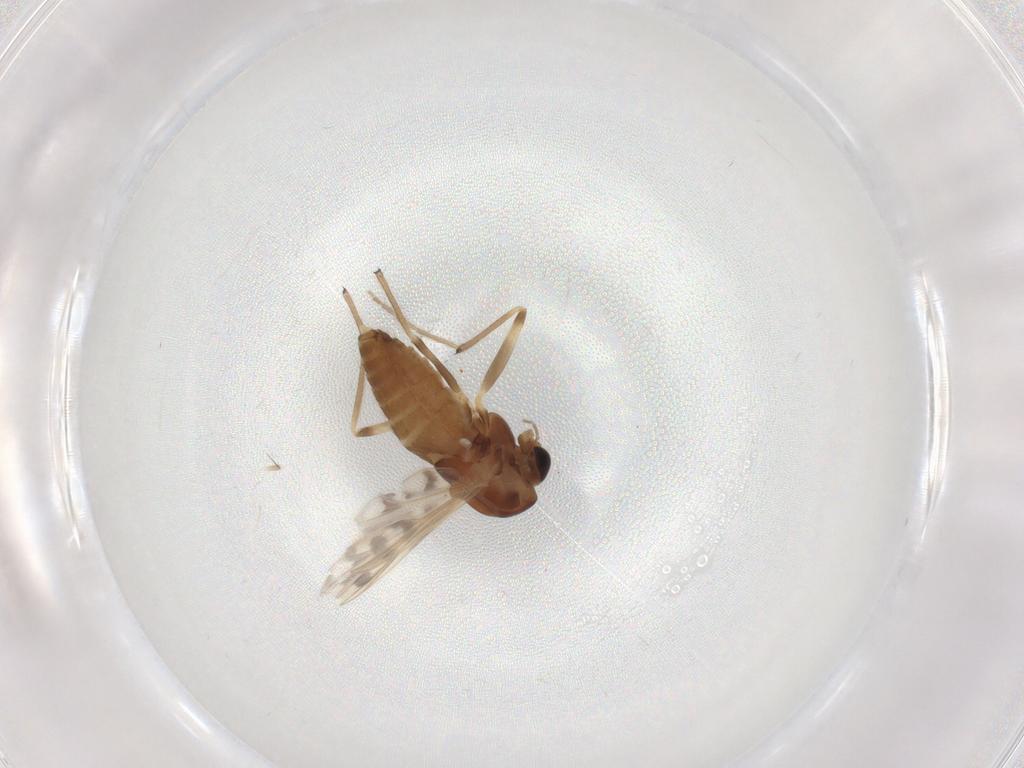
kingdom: Animalia
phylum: Arthropoda
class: Insecta
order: Diptera
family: Chironomidae
